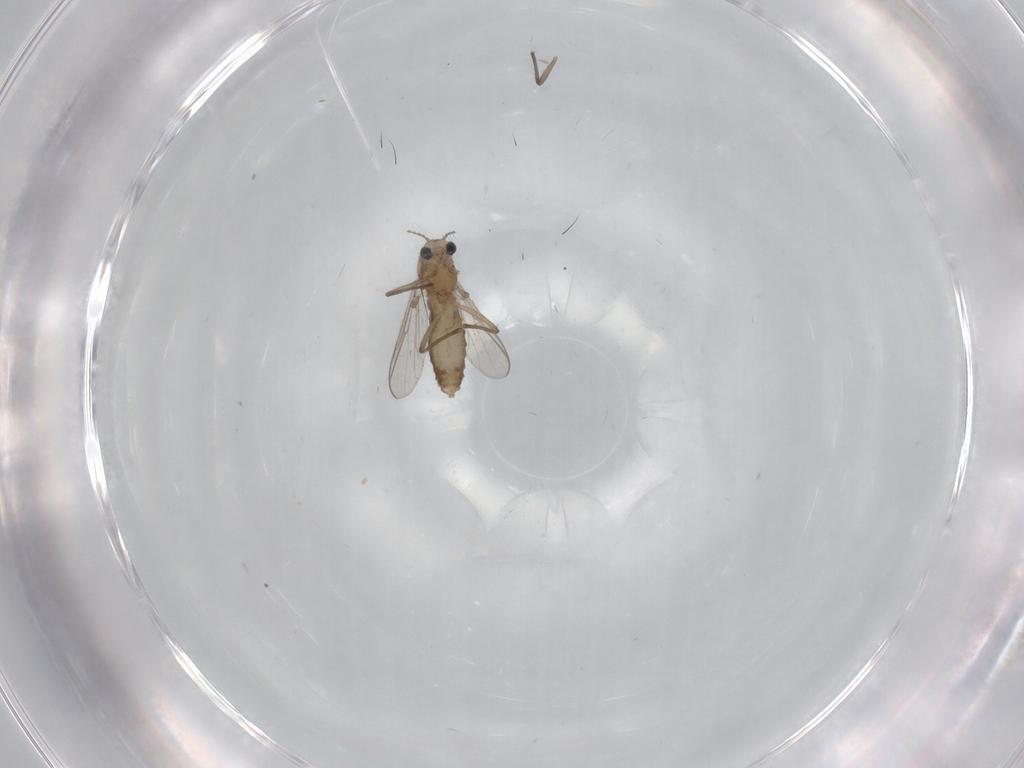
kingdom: Animalia
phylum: Arthropoda
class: Insecta
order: Diptera
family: Chironomidae
